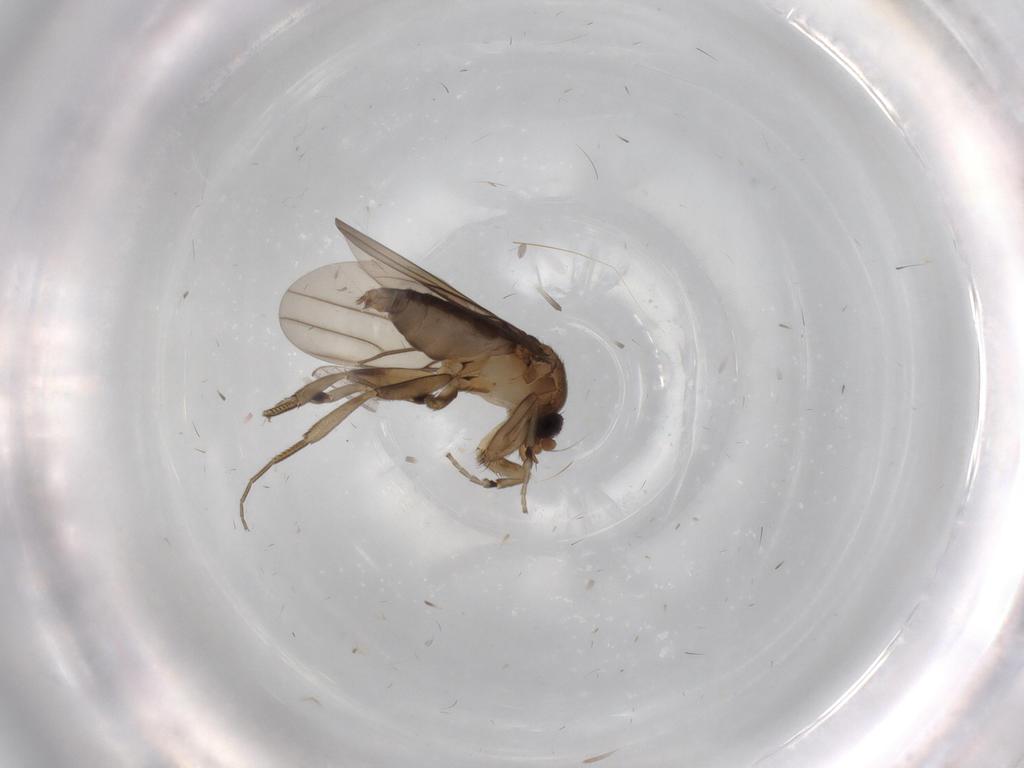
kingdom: Animalia
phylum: Arthropoda
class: Insecta
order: Diptera
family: Phoridae
